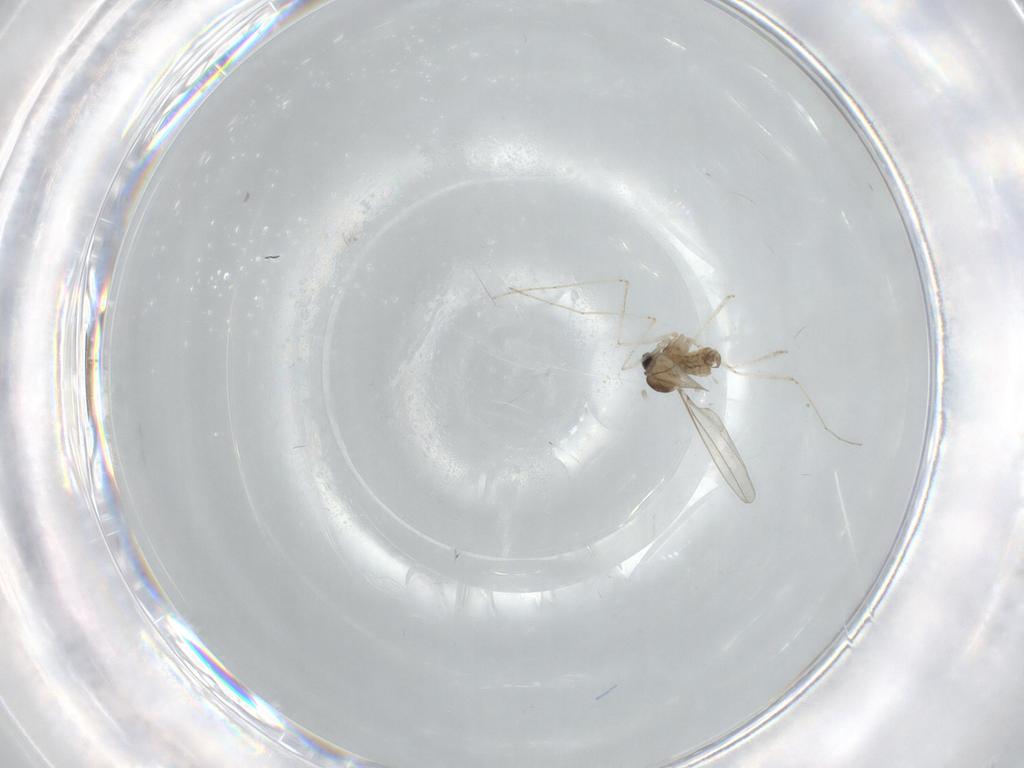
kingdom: Animalia
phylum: Arthropoda
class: Insecta
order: Diptera
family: Cecidomyiidae
